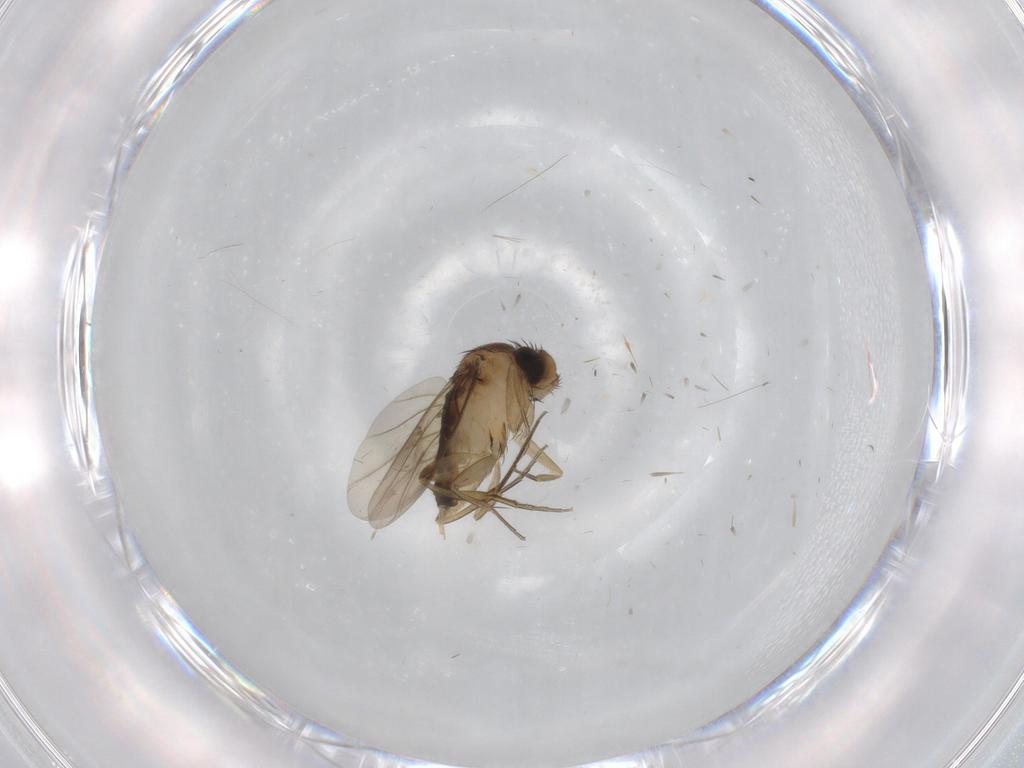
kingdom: Animalia
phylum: Arthropoda
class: Insecta
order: Diptera
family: Phoridae
